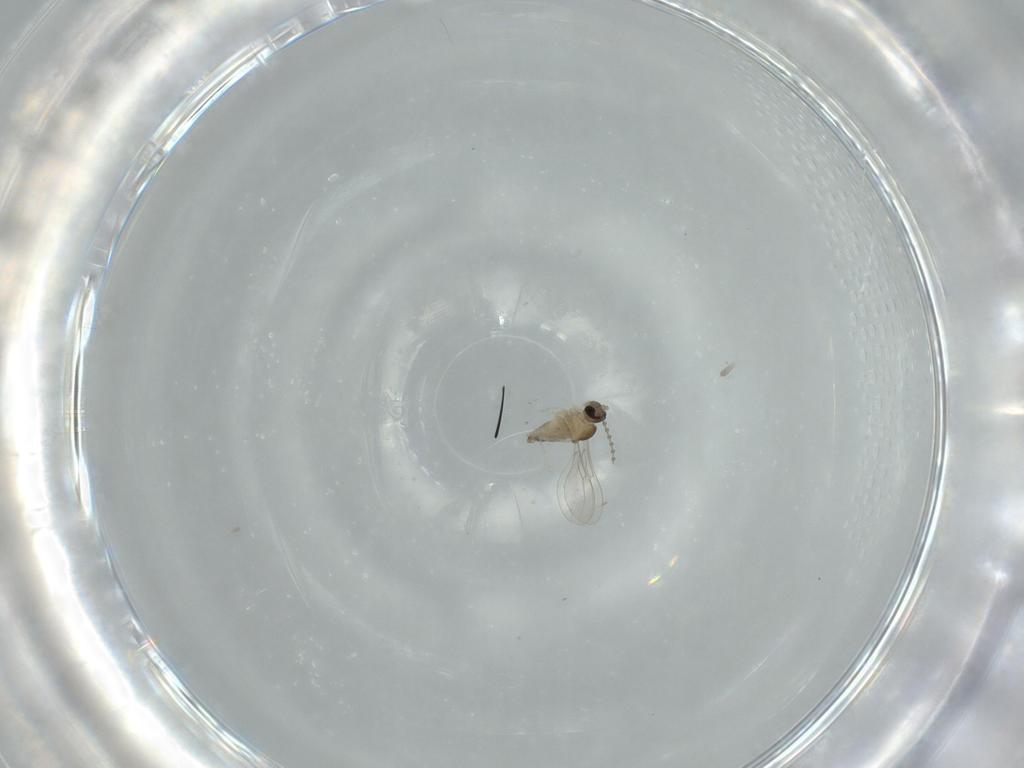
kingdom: Animalia
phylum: Arthropoda
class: Insecta
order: Diptera
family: Cecidomyiidae
